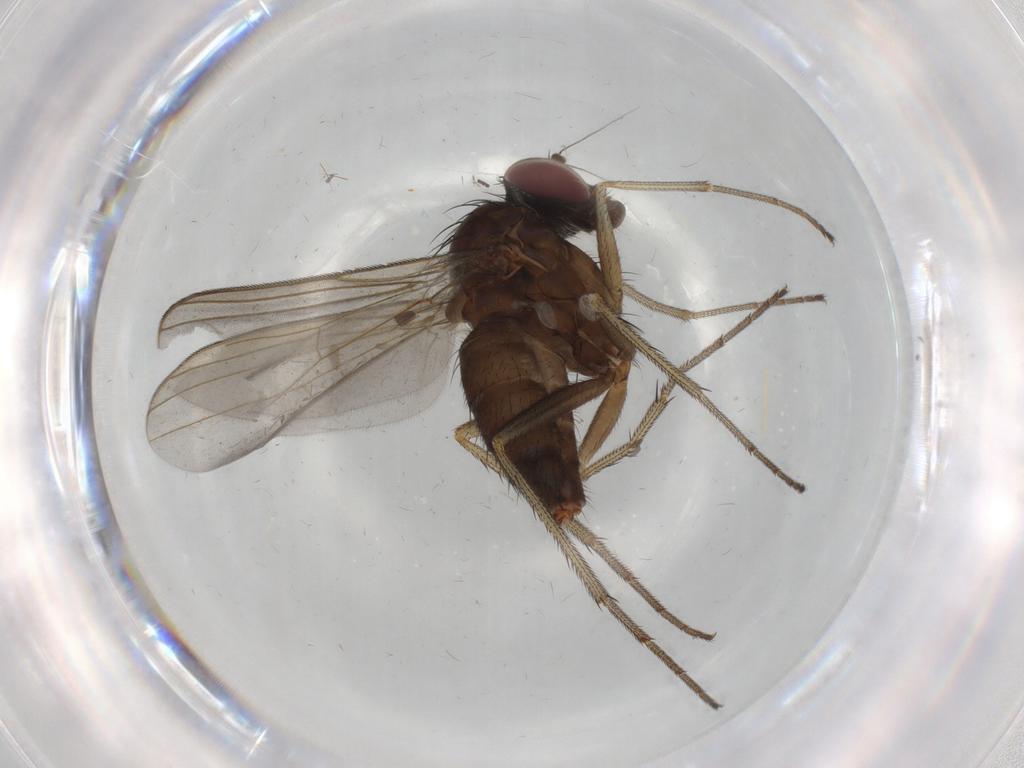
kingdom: Animalia
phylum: Arthropoda
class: Insecta
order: Diptera
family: Dolichopodidae
